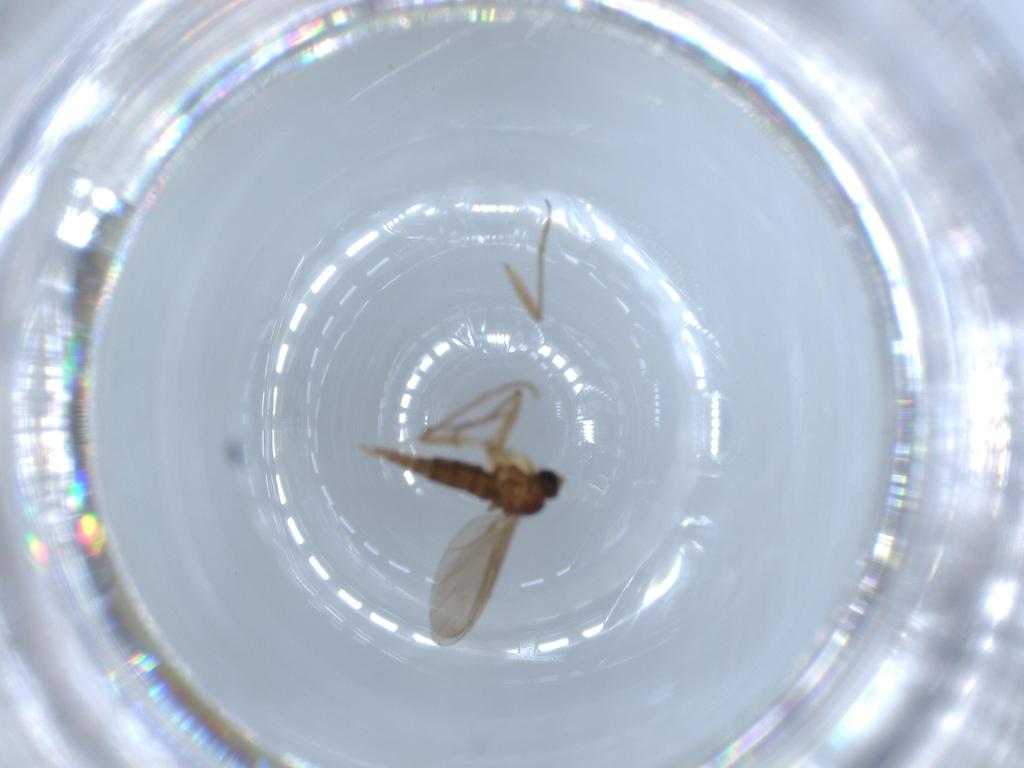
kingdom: Animalia
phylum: Arthropoda
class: Insecta
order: Diptera
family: Sciaridae
